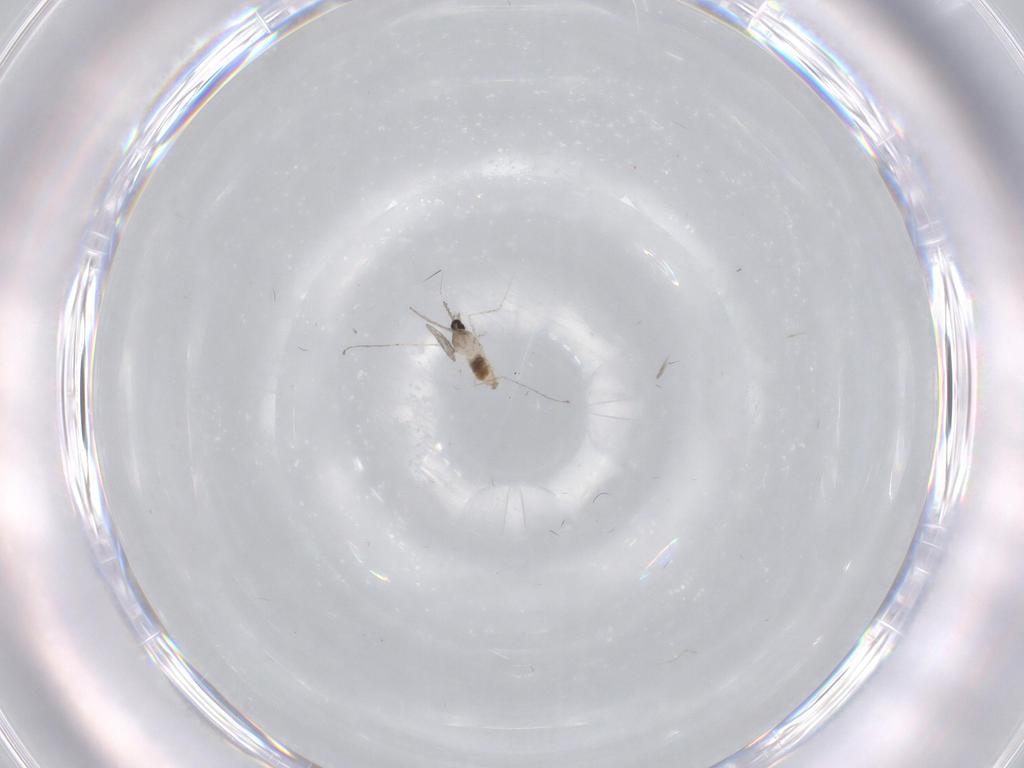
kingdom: Animalia
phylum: Arthropoda
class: Insecta
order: Diptera
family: Cecidomyiidae
